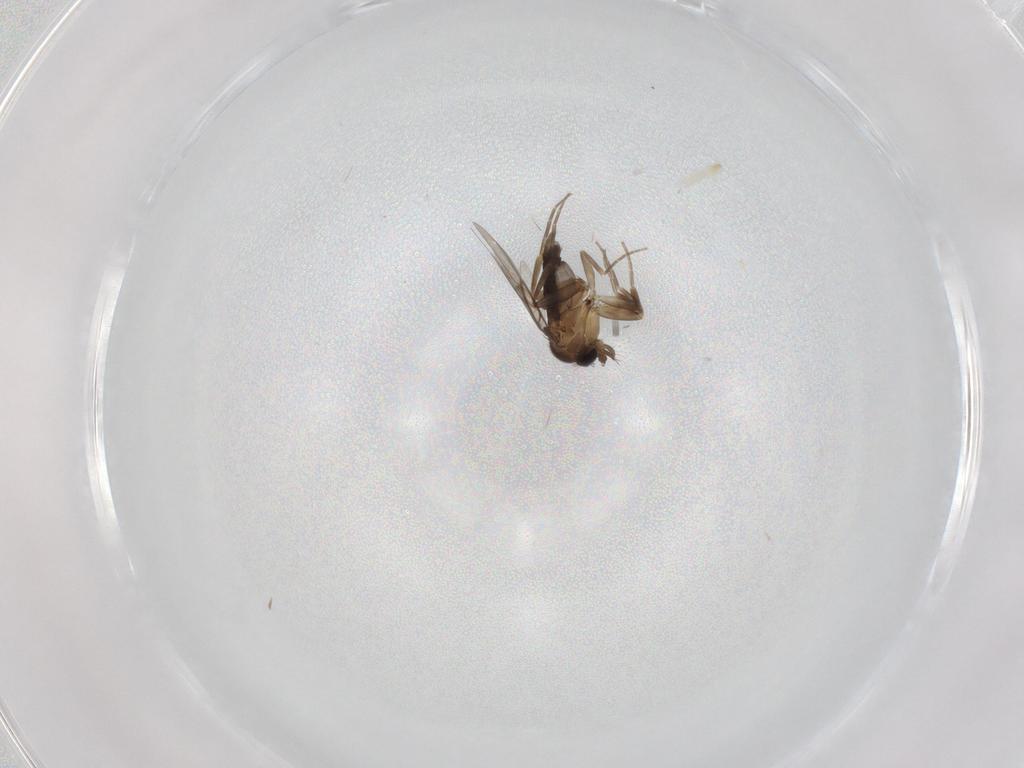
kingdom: Animalia
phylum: Arthropoda
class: Insecta
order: Diptera
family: Phoridae
